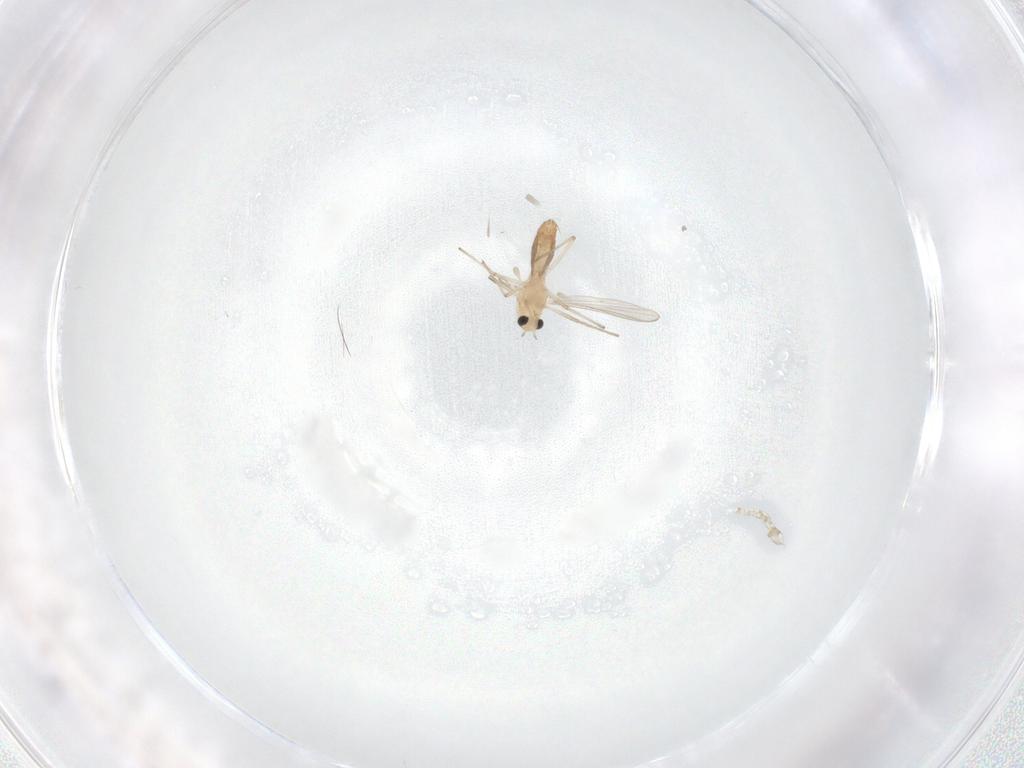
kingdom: Animalia
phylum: Arthropoda
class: Insecta
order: Diptera
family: Chironomidae
